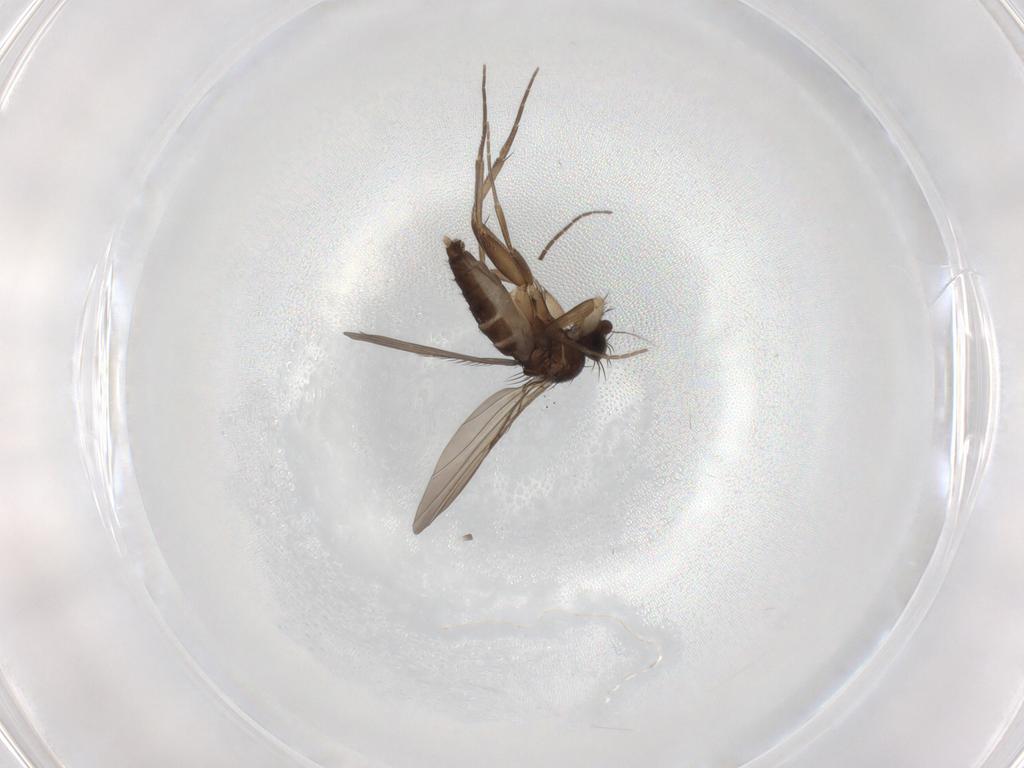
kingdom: Animalia
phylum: Arthropoda
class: Insecta
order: Diptera
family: Phoridae
